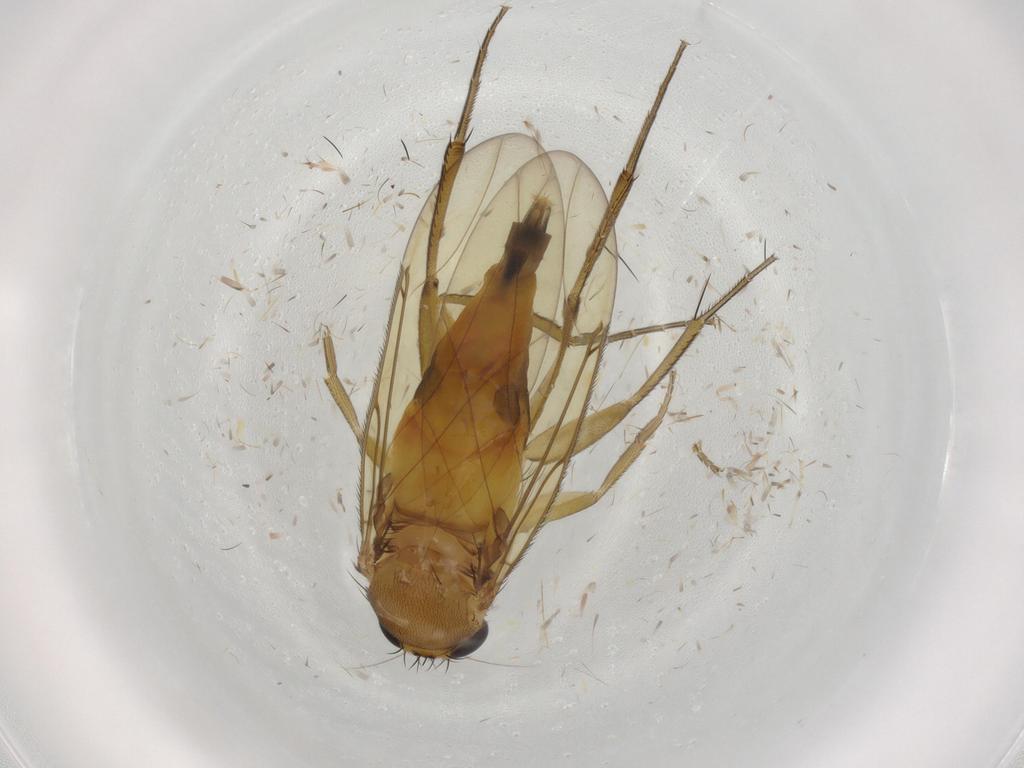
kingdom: Animalia
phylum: Arthropoda
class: Insecta
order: Diptera
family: Phoridae
